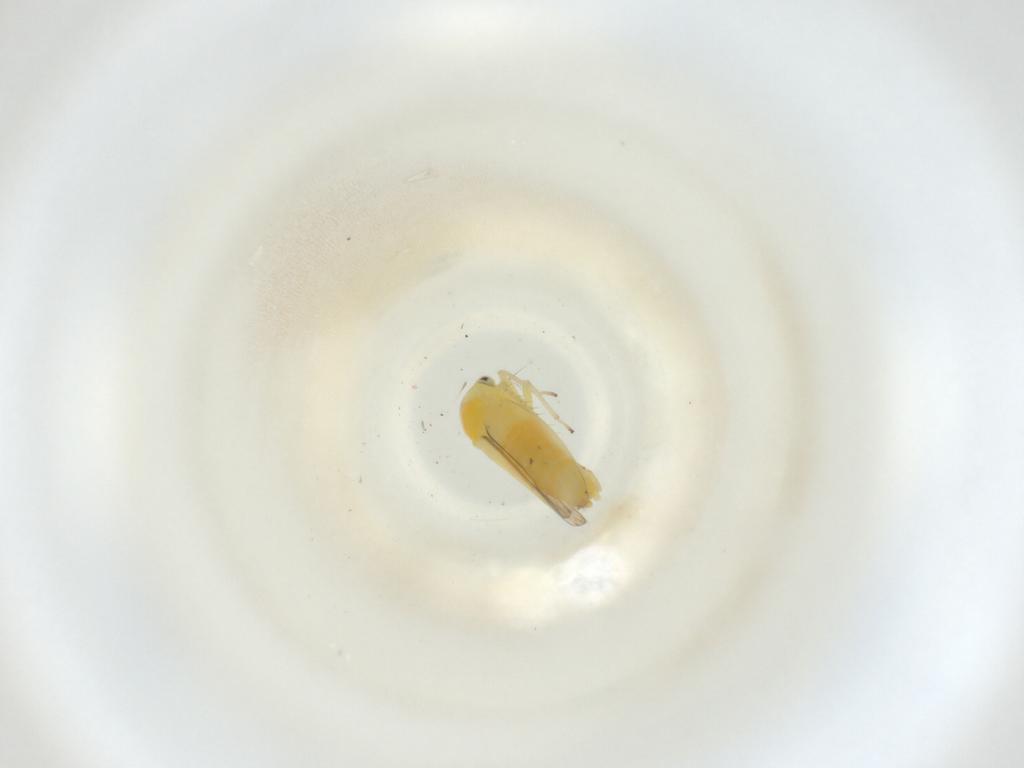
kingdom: Animalia
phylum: Arthropoda
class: Insecta
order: Hemiptera
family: Cicadellidae
